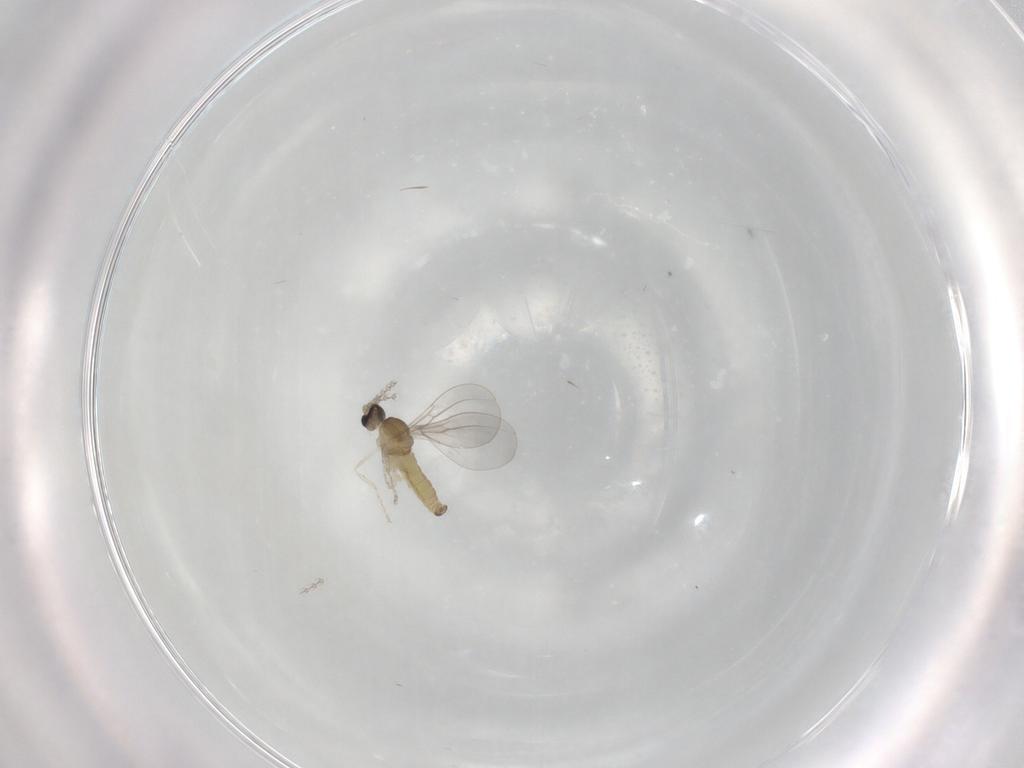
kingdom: Animalia
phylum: Arthropoda
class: Insecta
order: Diptera
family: Cecidomyiidae
